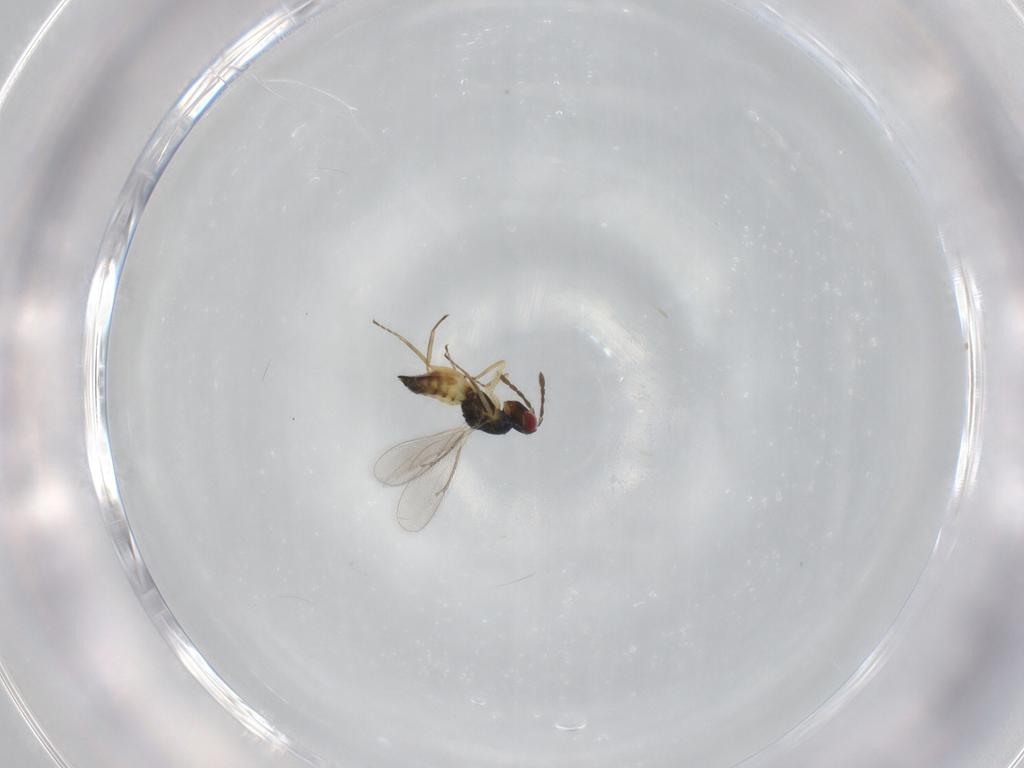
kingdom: Animalia
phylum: Arthropoda
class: Insecta
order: Hymenoptera
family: Eulophidae
